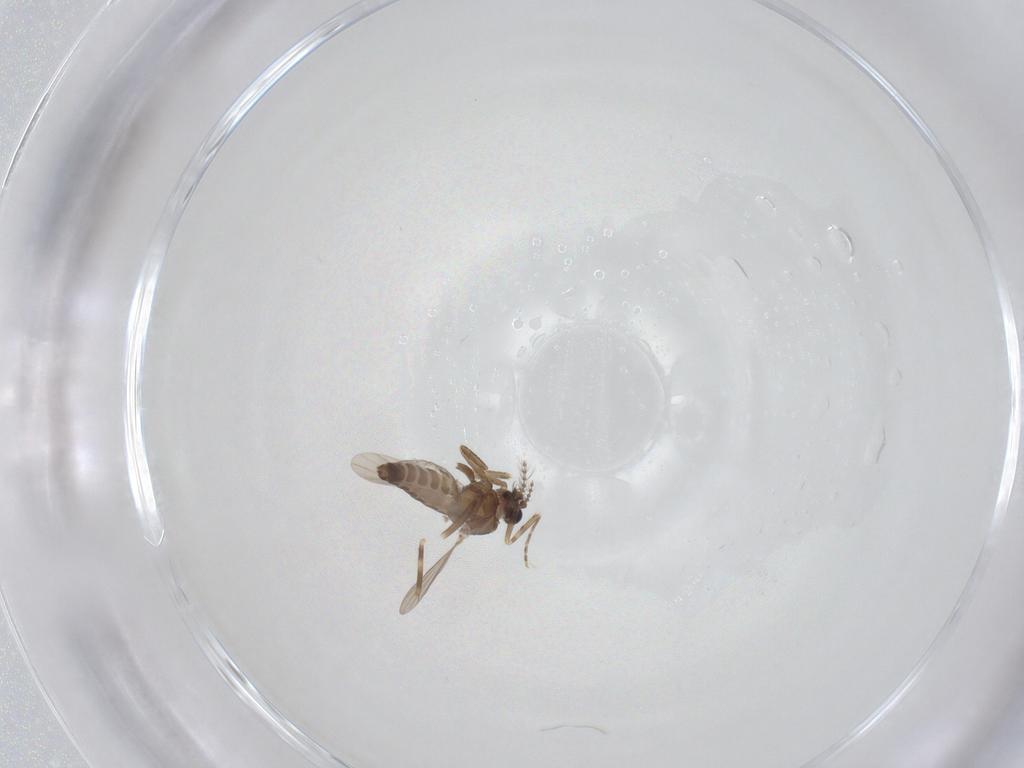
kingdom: Animalia
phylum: Arthropoda
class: Insecta
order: Diptera
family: Ceratopogonidae
